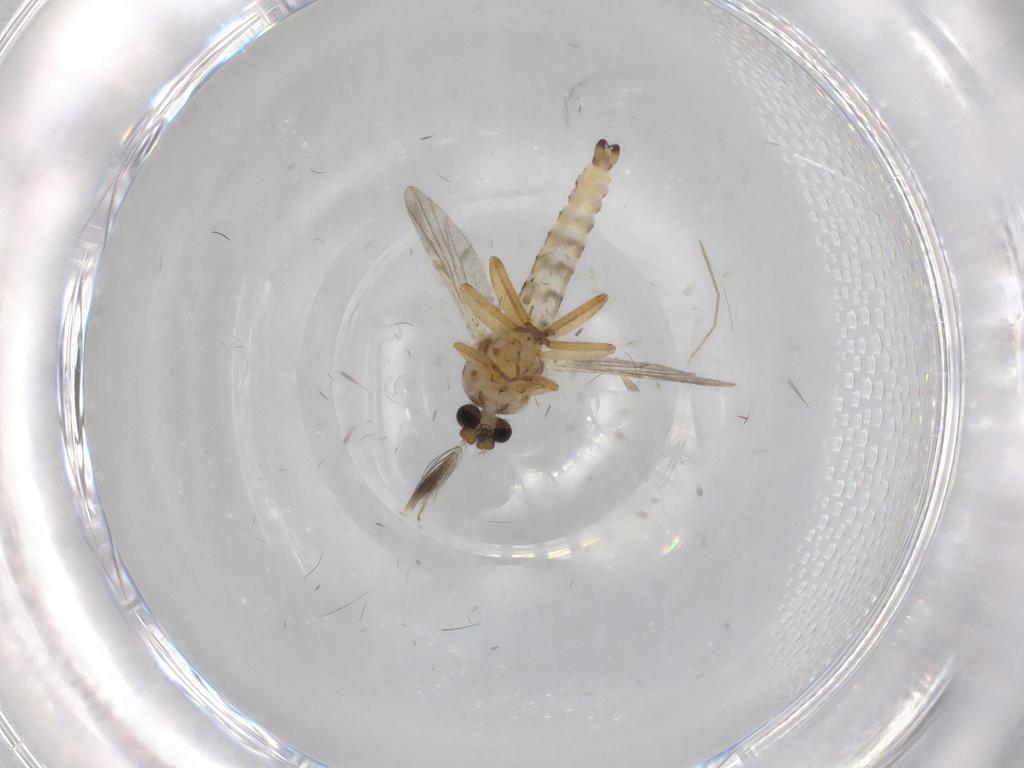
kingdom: Animalia
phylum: Arthropoda
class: Insecta
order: Diptera
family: Ceratopogonidae
